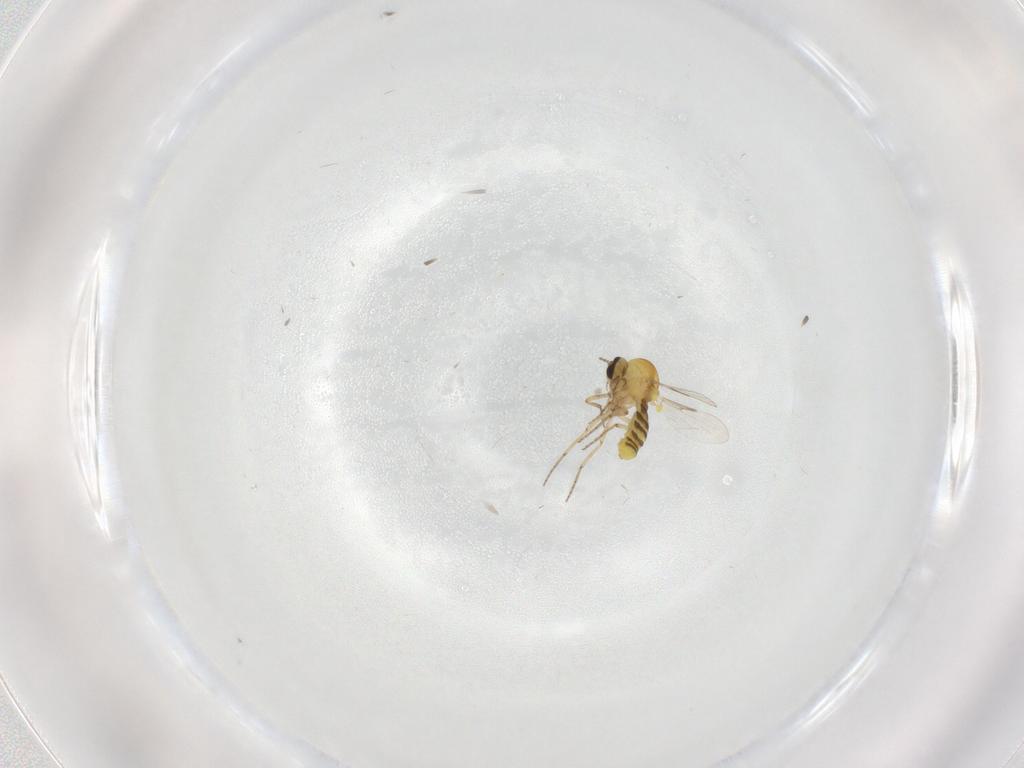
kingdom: Animalia
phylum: Arthropoda
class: Insecta
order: Diptera
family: Ceratopogonidae
